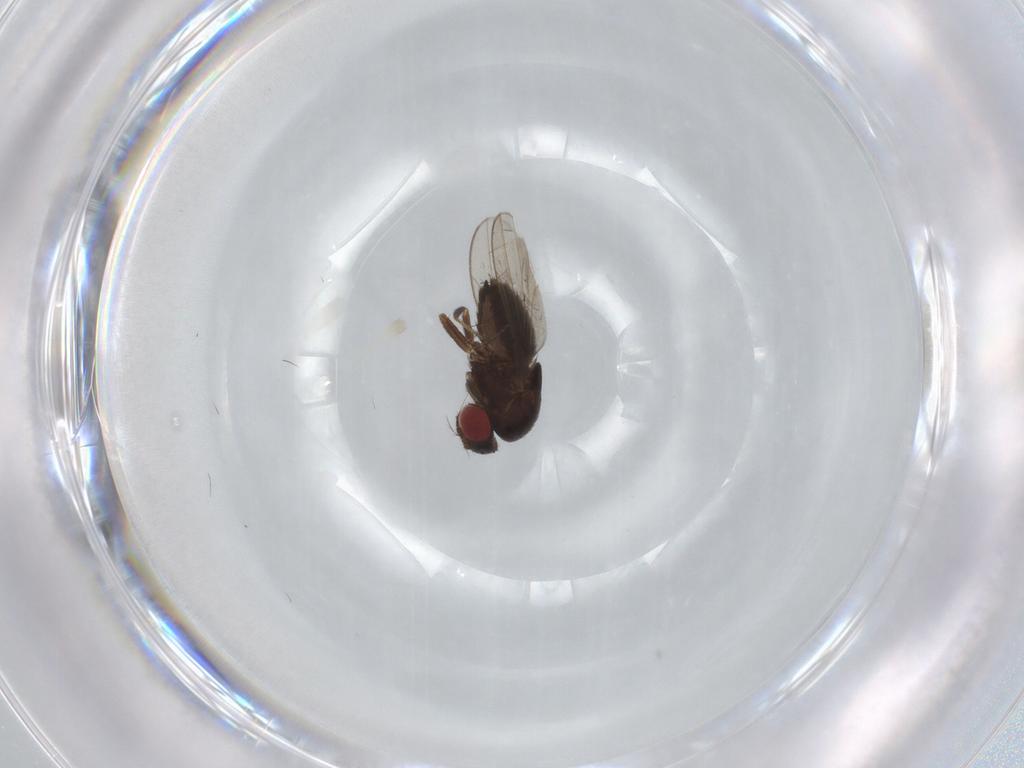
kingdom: Animalia
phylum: Arthropoda
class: Insecta
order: Diptera
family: Drosophilidae
